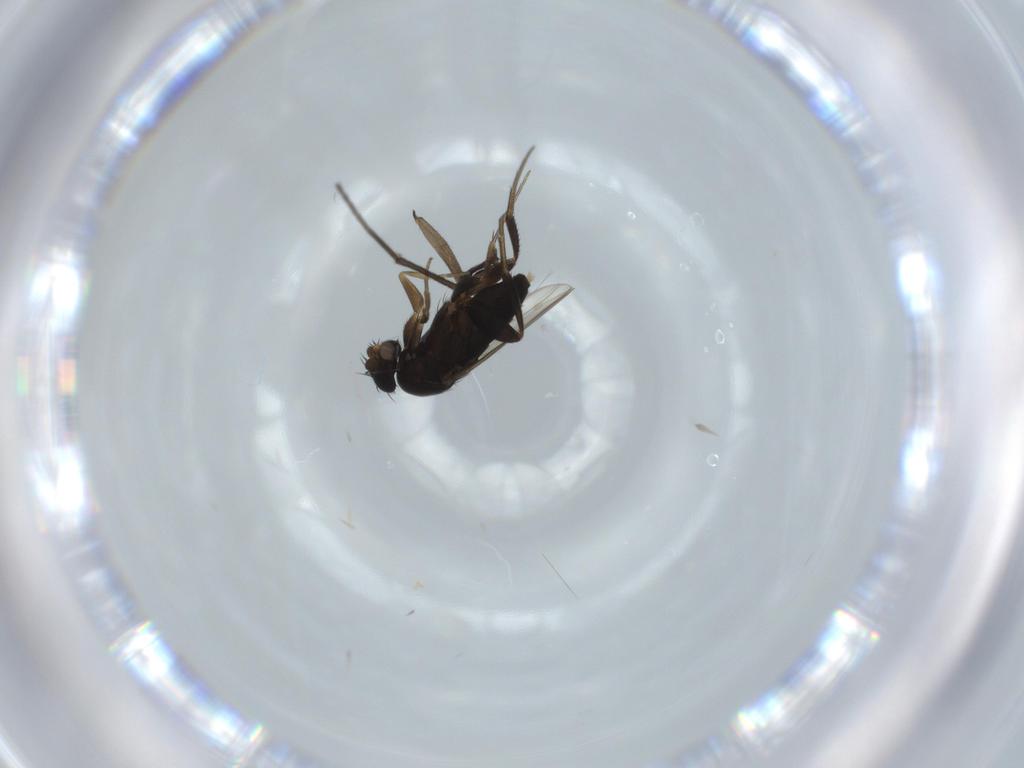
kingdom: Animalia
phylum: Arthropoda
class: Insecta
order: Diptera
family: Phoridae
